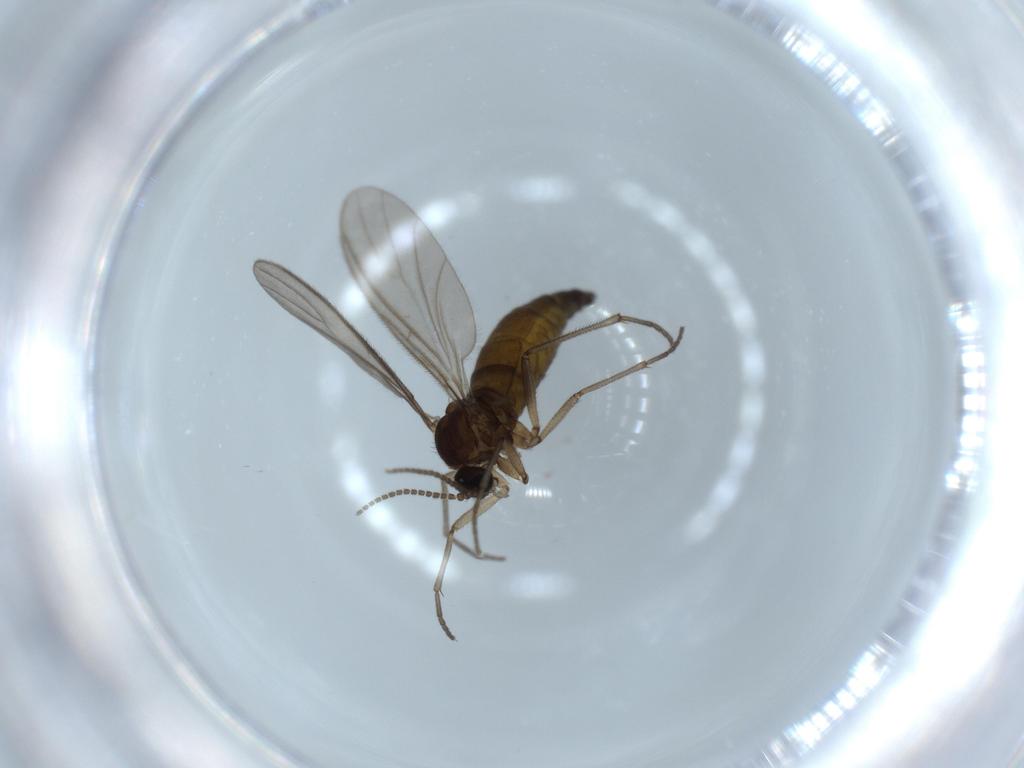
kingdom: Animalia
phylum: Arthropoda
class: Insecta
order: Diptera
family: Sciaridae
